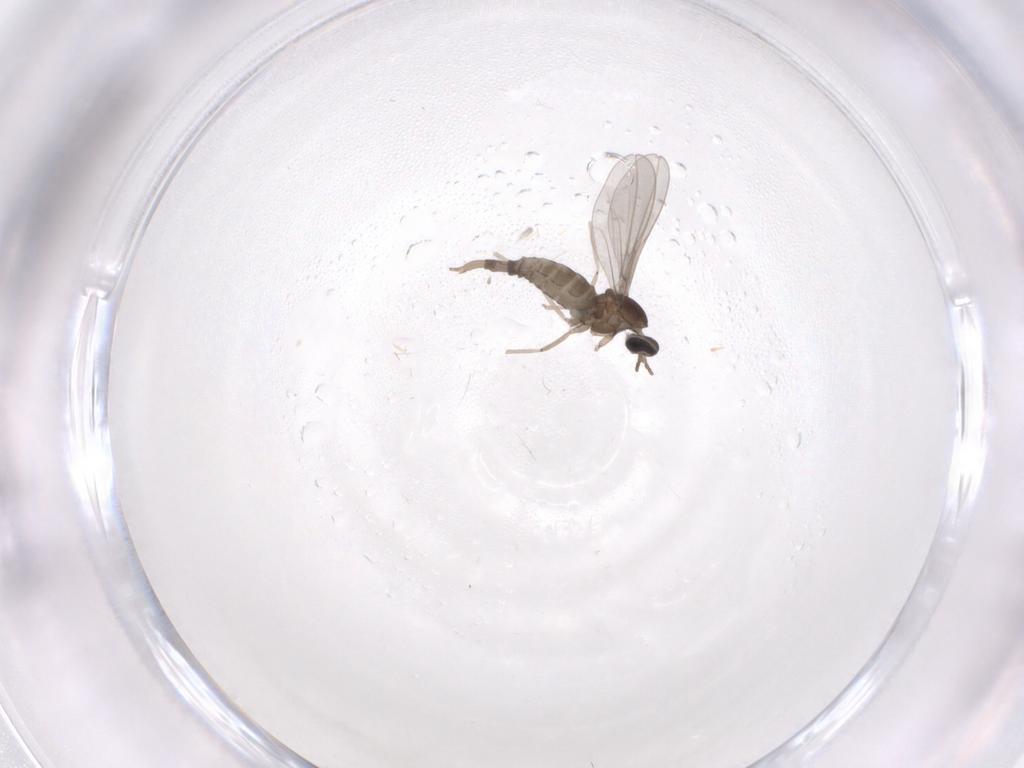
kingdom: Animalia
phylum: Arthropoda
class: Insecta
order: Diptera
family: Cecidomyiidae
